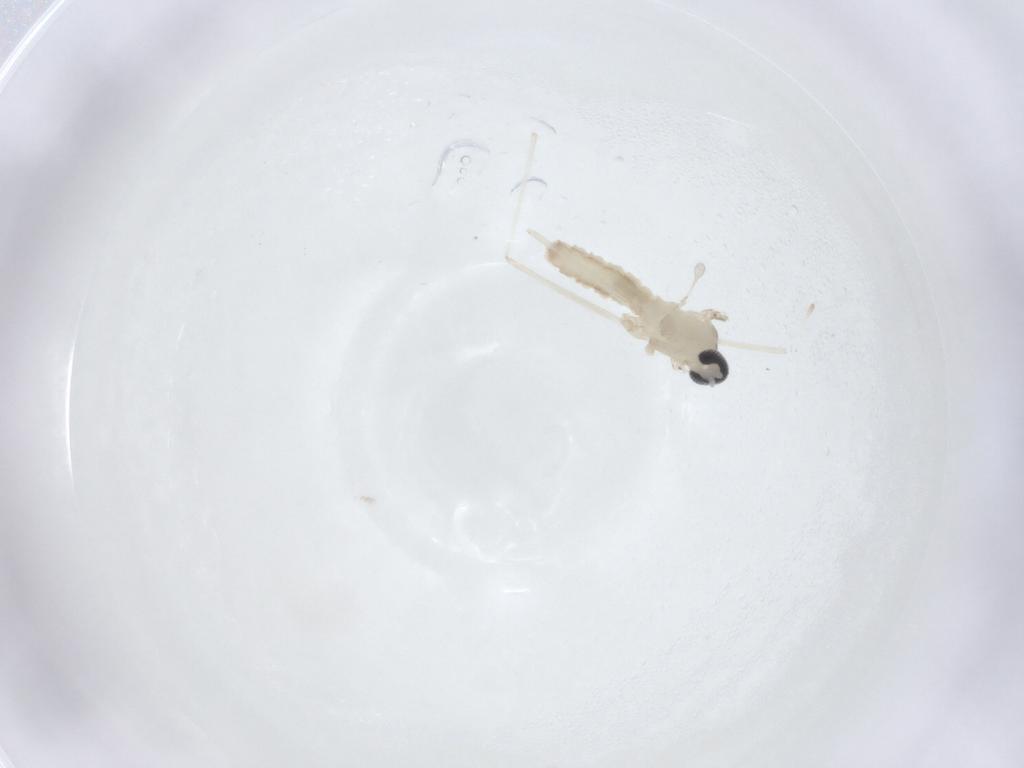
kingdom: Animalia
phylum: Arthropoda
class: Insecta
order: Diptera
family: Cecidomyiidae
